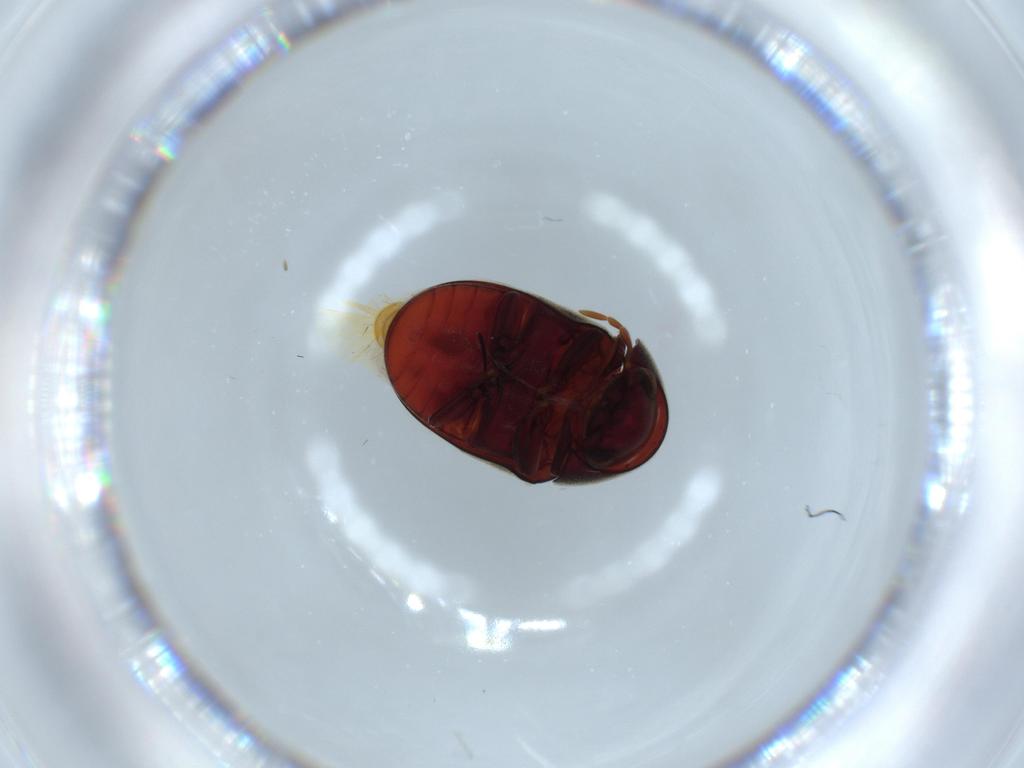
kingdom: Animalia
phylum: Arthropoda
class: Insecta
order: Coleoptera
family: Ptinidae
